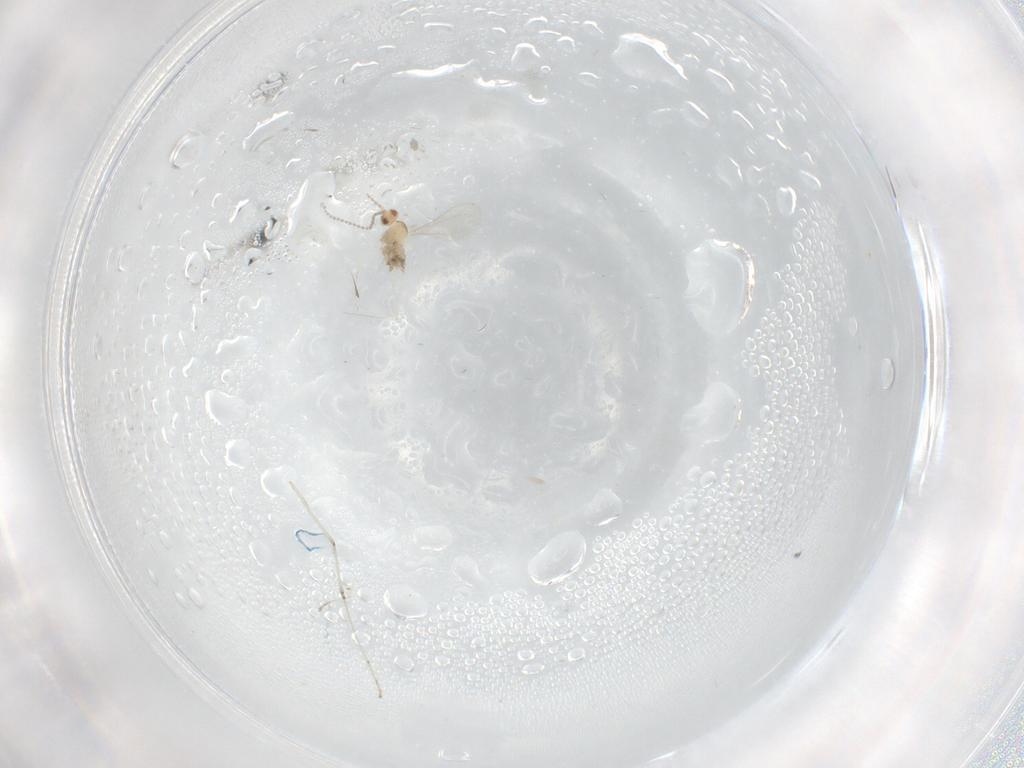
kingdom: Animalia
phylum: Arthropoda
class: Insecta
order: Diptera
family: Cecidomyiidae
